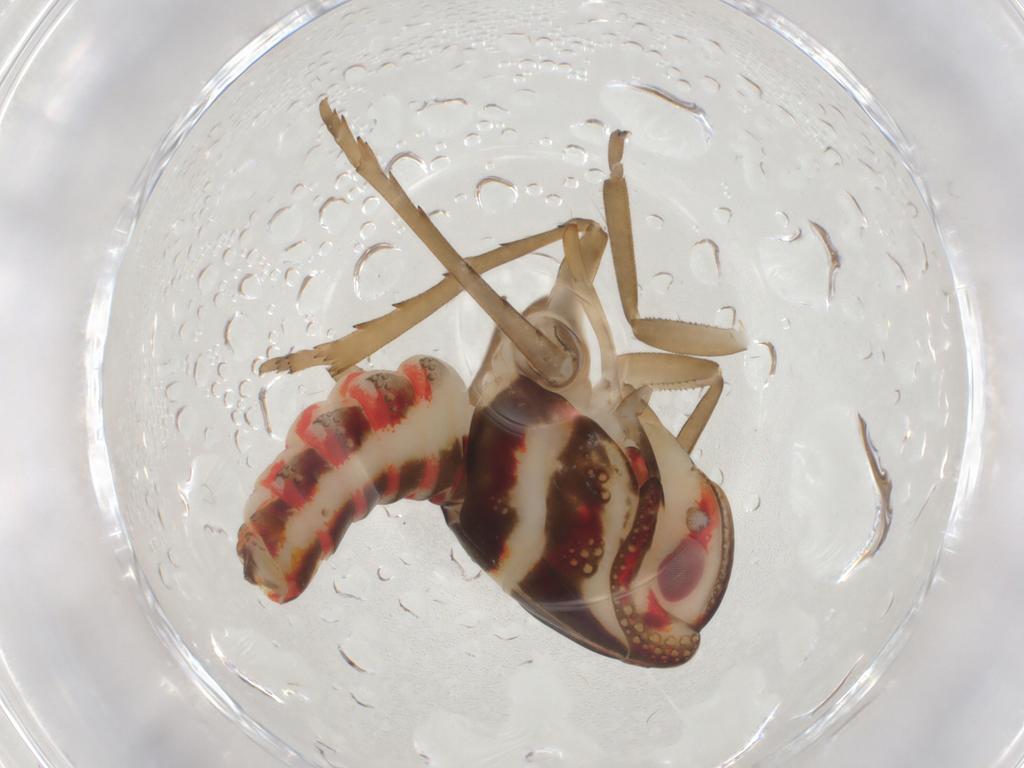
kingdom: Animalia
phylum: Arthropoda
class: Insecta
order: Hemiptera
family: Nogodinidae
